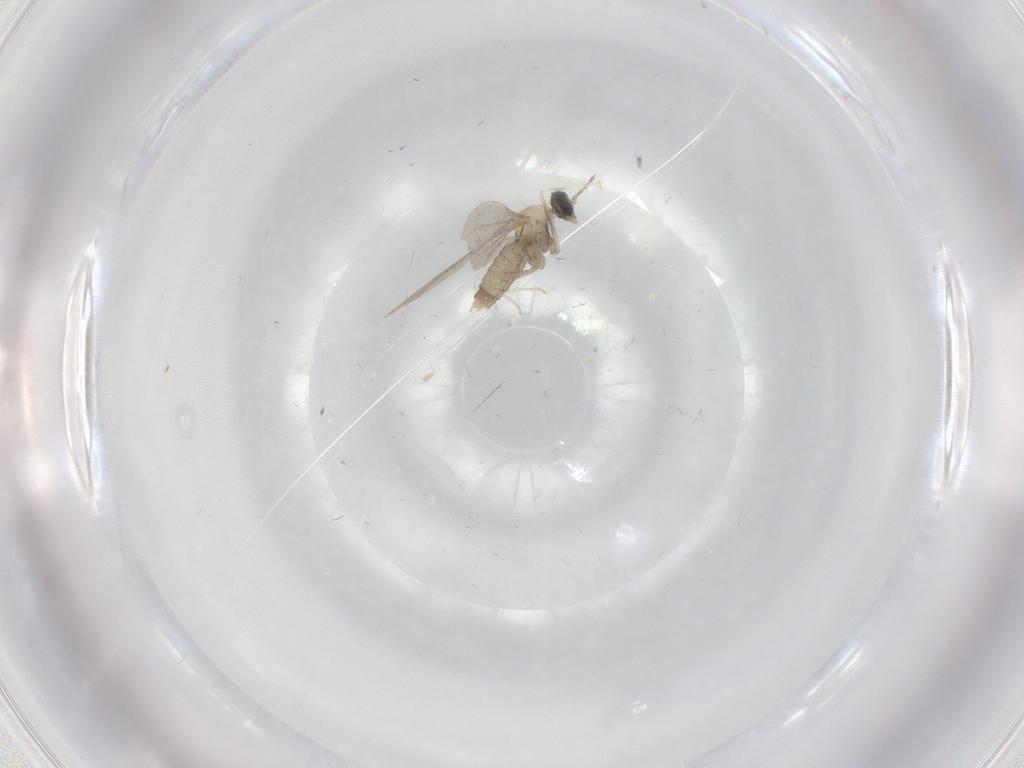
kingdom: Animalia
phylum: Arthropoda
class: Insecta
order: Diptera
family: Cecidomyiidae
